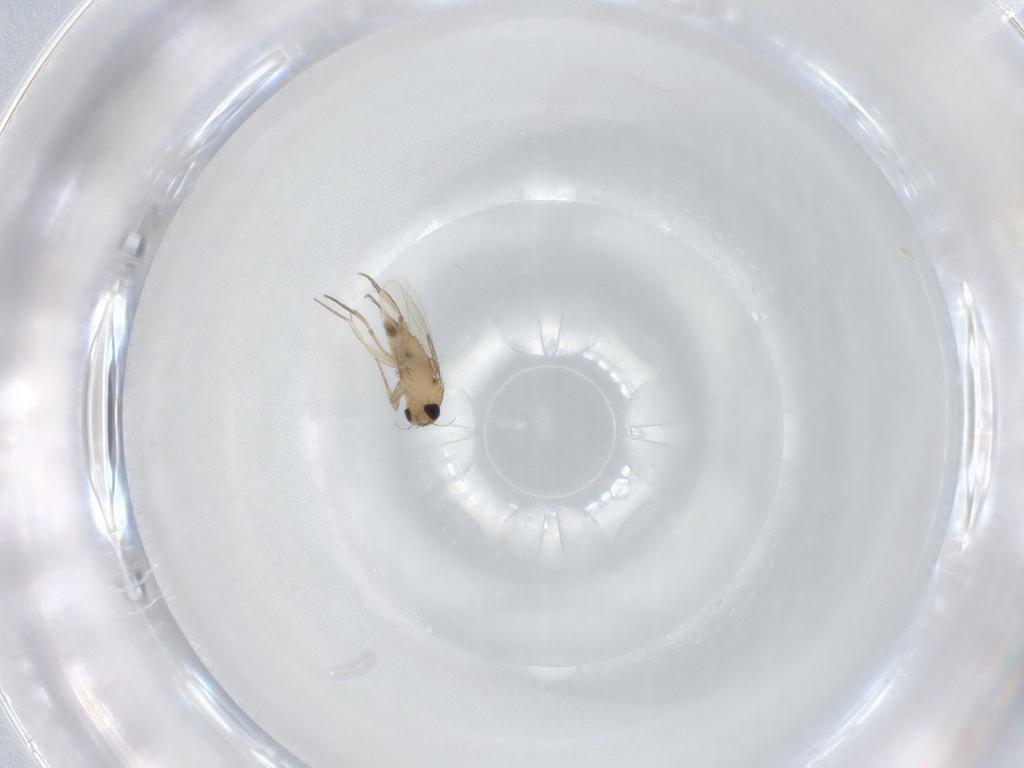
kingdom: Animalia
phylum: Arthropoda
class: Insecta
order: Diptera
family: Phoridae
